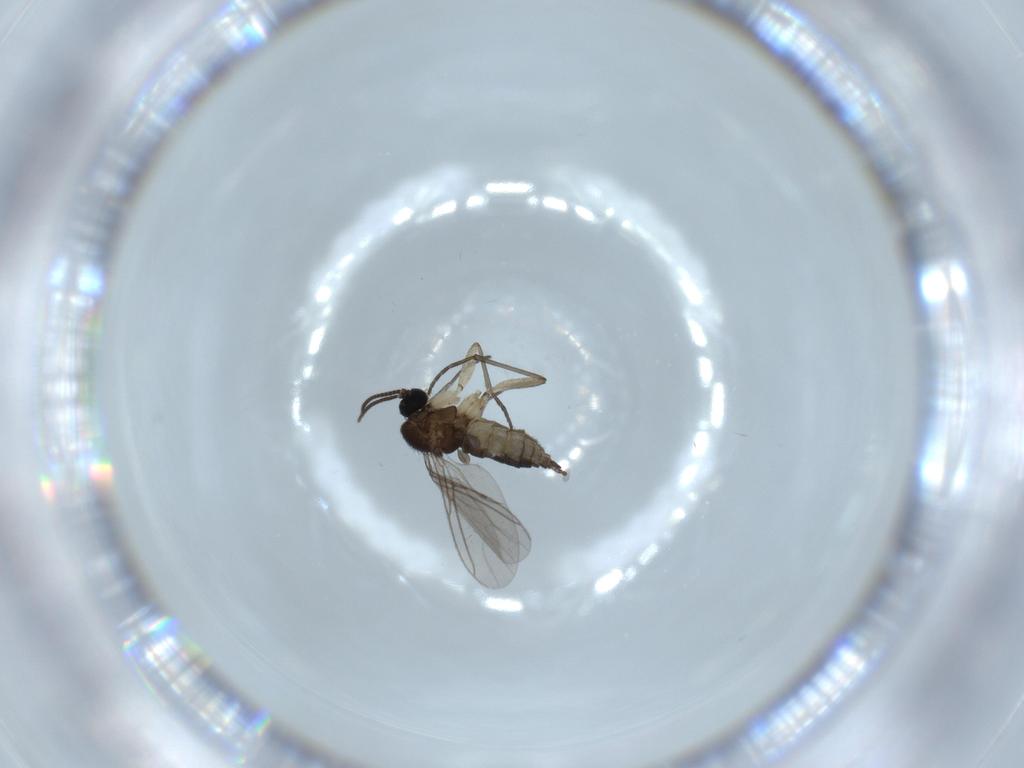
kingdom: Animalia
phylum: Arthropoda
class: Insecta
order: Diptera
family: Sciaridae
